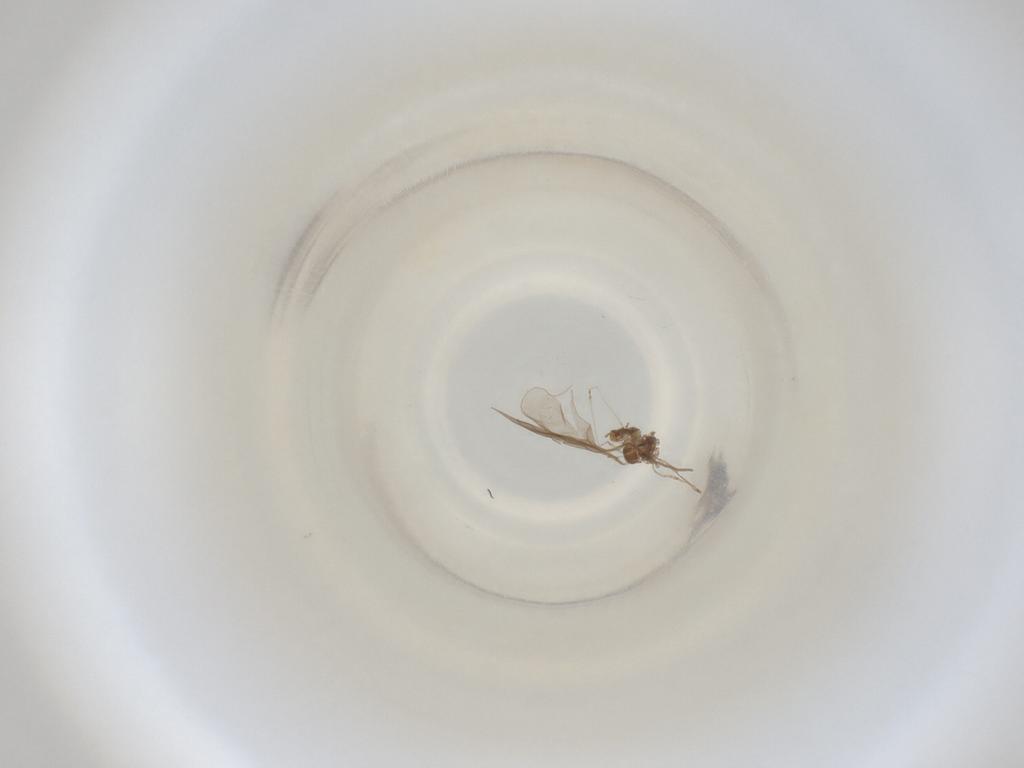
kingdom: Animalia
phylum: Arthropoda
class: Insecta
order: Diptera
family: Cecidomyiidae
